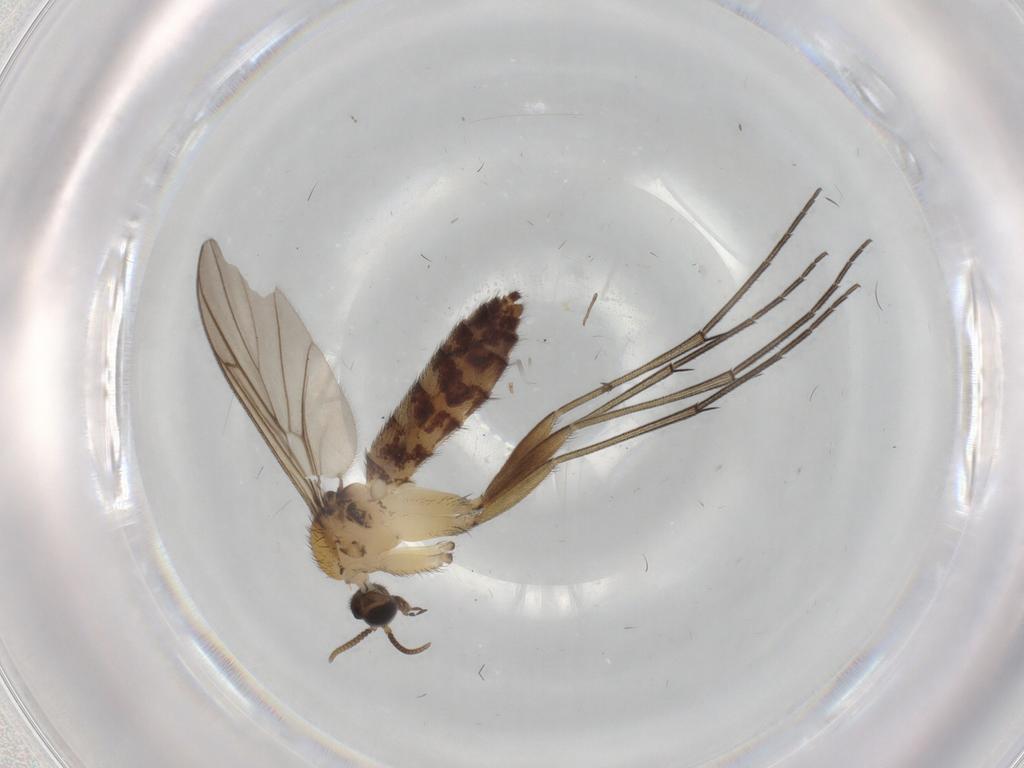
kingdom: Animalia
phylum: Arthropoda
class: Insecta
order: Diptera
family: Keroplatidae
